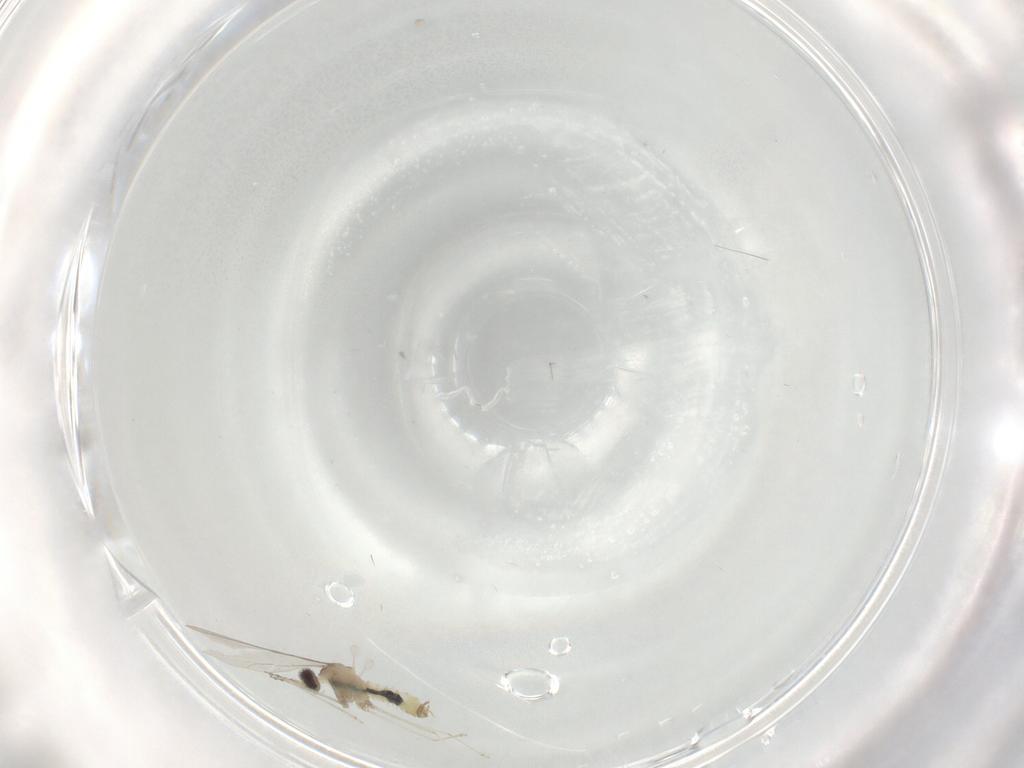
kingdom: Animalia
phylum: Arthropoda
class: Insecta
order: Diptera
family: Cecidomyiidae
